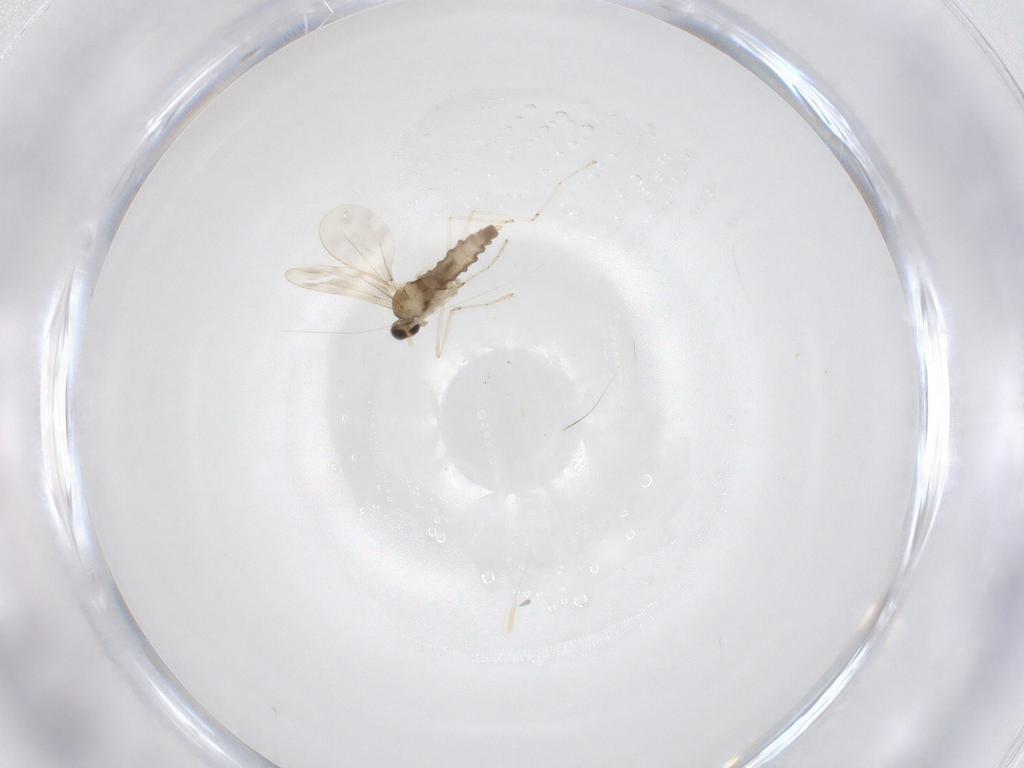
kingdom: Animalia
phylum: Arthropoda
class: Insecta
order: Diptera
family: Cecidomyiidae
